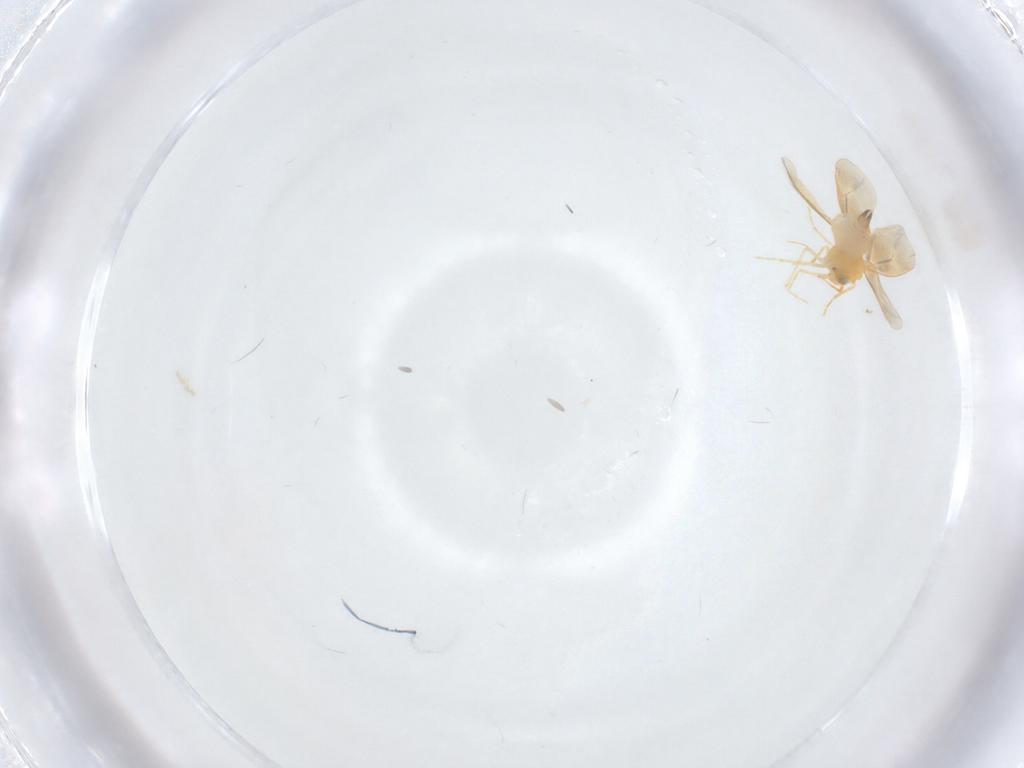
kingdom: Animalia
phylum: Arthropoda
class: Insecta
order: Hemiptera
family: Aleyrodidae
